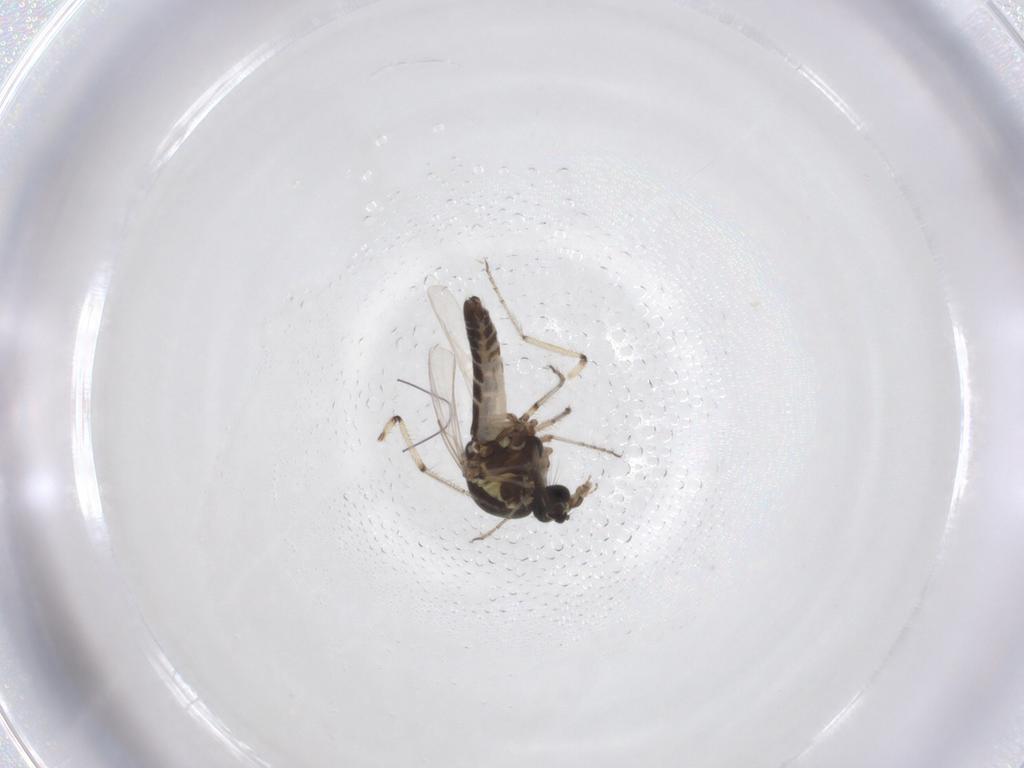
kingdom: Animalia
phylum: Arthropoda
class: Insecta
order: Diptera
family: Ceratopogonidae
